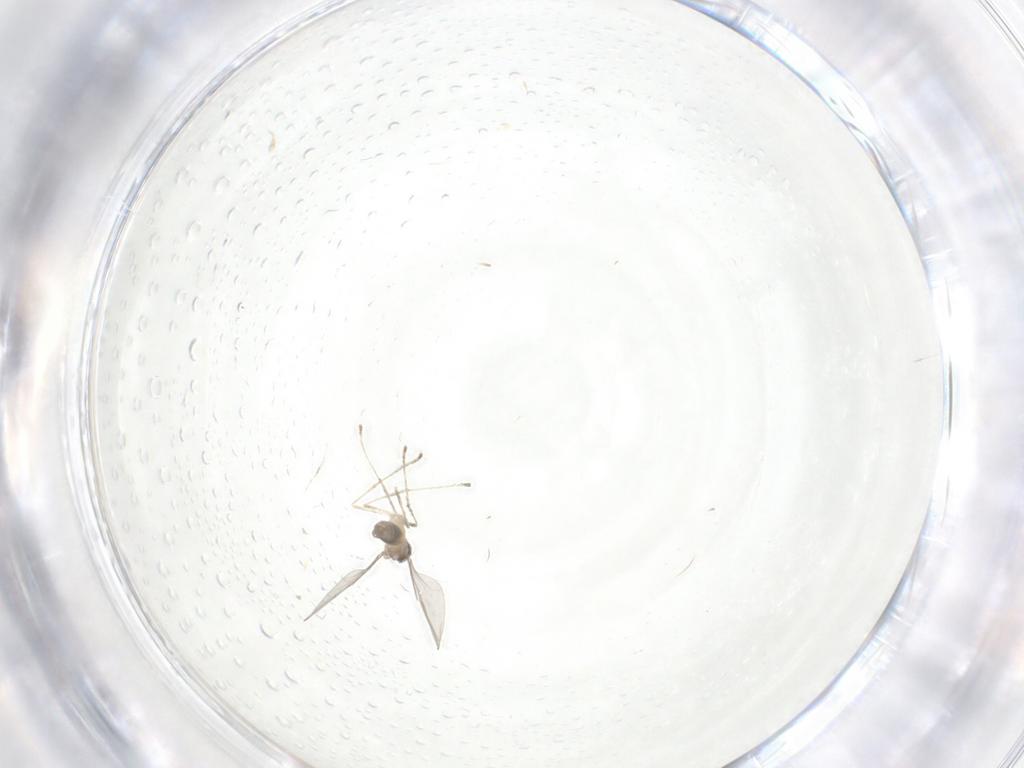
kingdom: Animalia
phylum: Arthropoda
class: Insecta
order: Diptera
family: Cecidomyiidae
